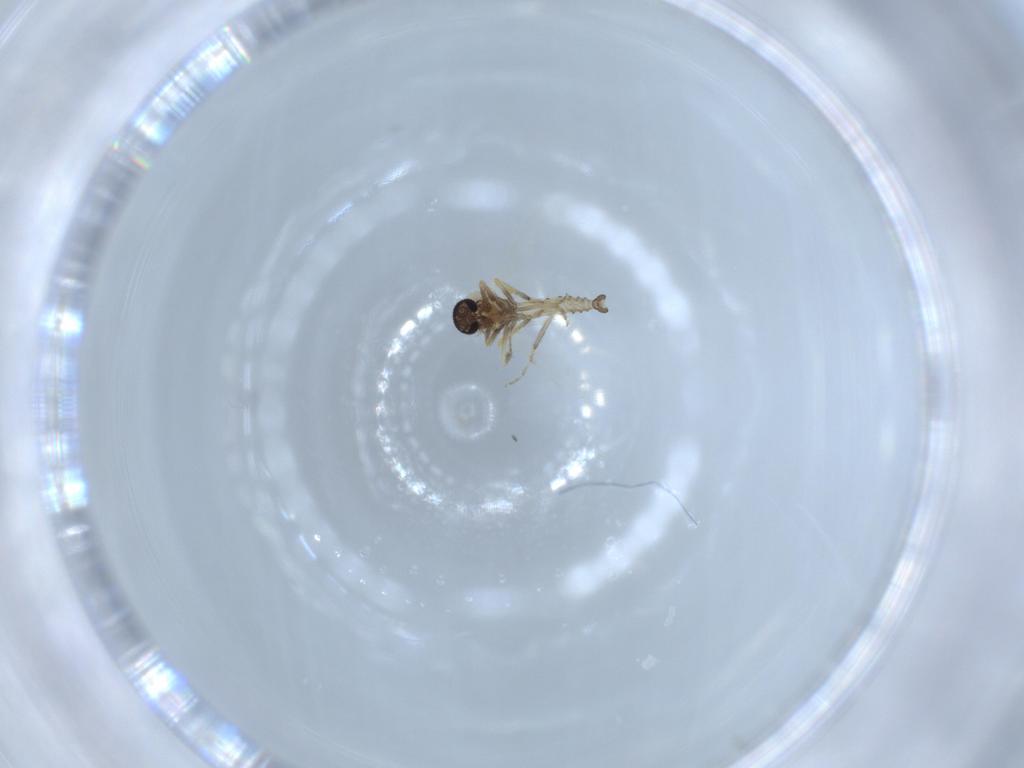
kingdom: Animalia
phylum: Arthropoda
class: Insecta
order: Diptera
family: Ceratopogonidae
